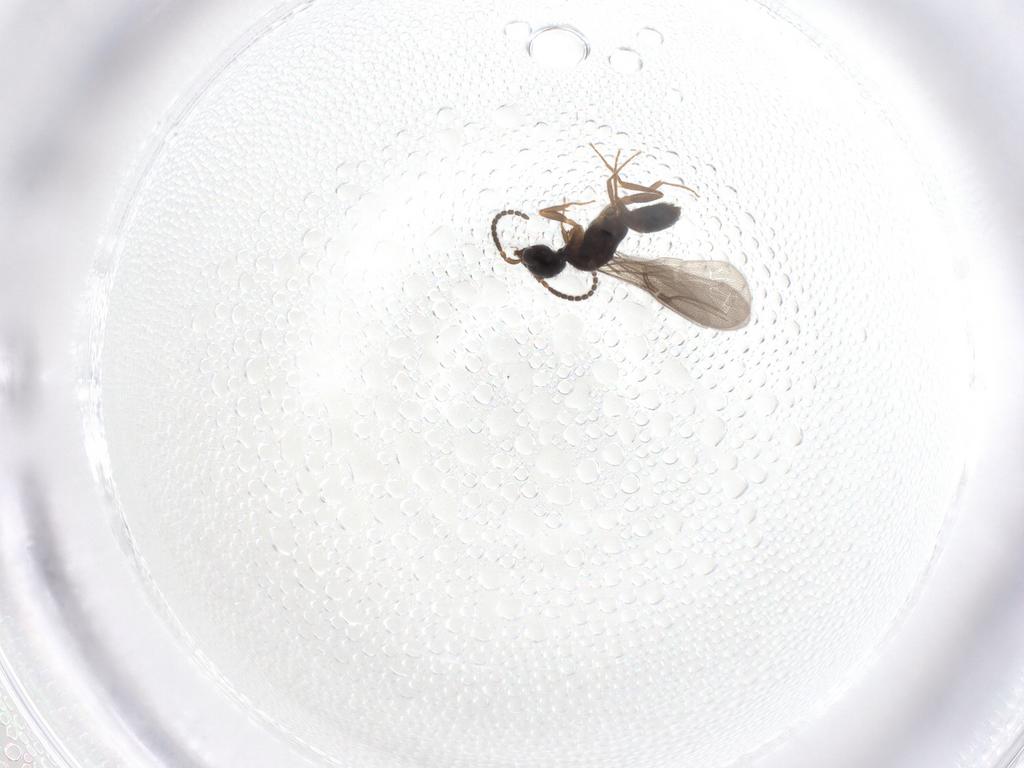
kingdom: Animalia
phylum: Arthropoda
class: Insecta
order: Hymenoptera
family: Bethylidae
